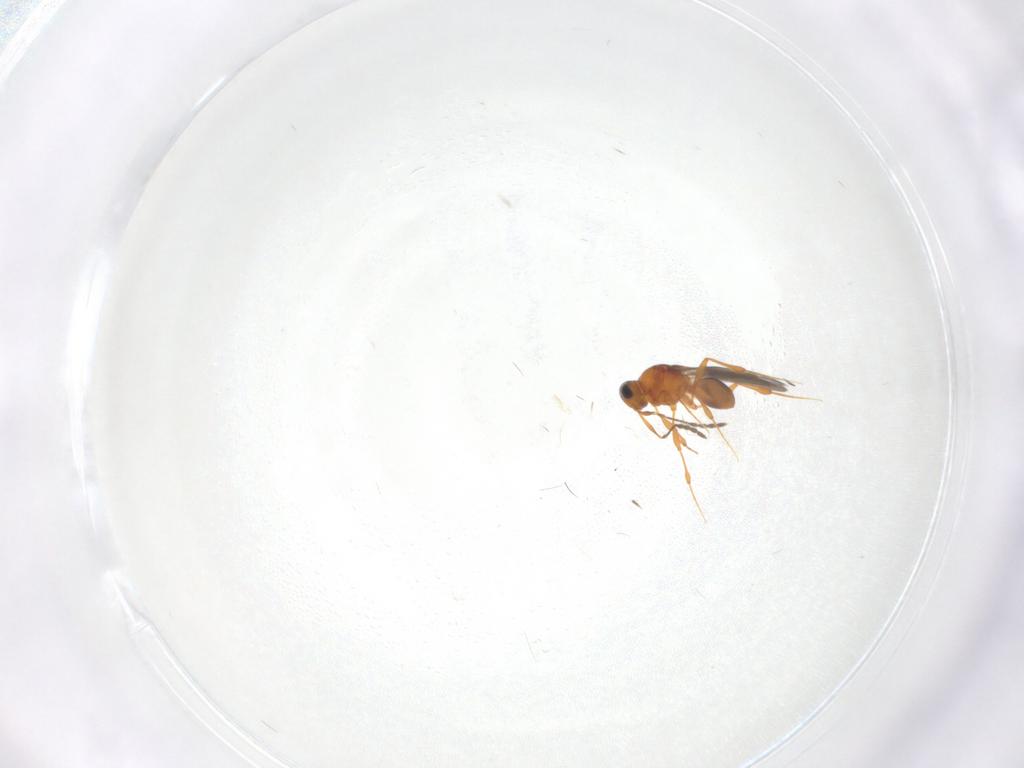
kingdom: Animalia
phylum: Arthropoda
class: Insecta
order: Hymenoptera
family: Platygastridae
